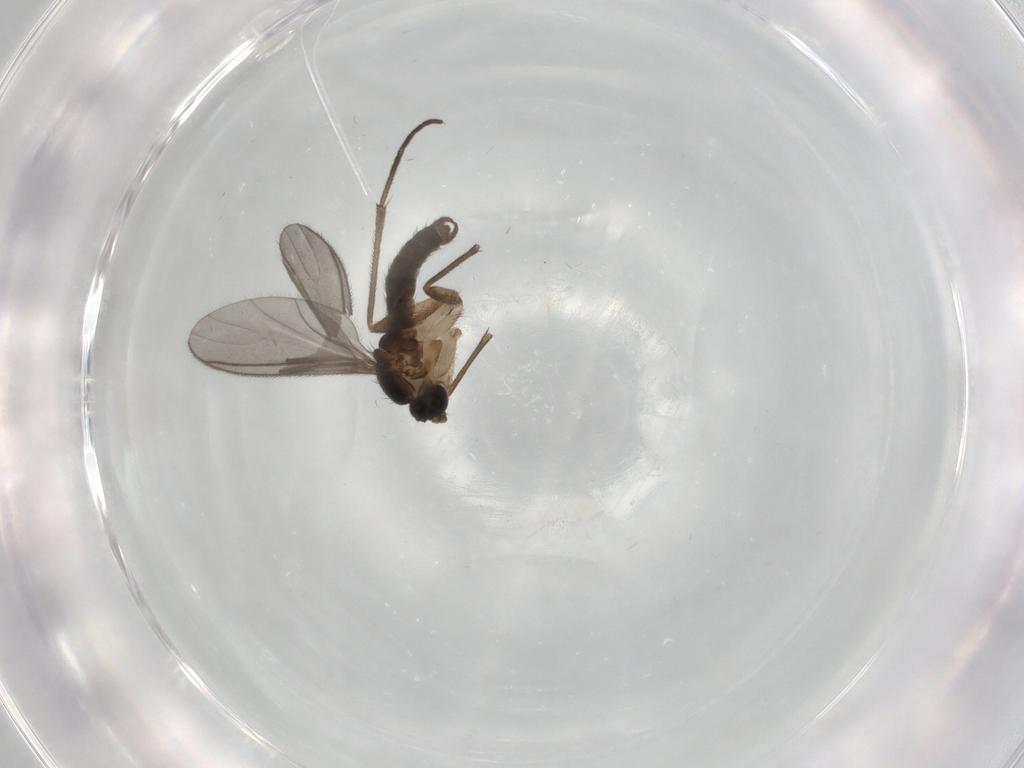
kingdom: Animalia
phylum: Arthropoda
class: Insecta
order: Diptera
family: Sciaridae
